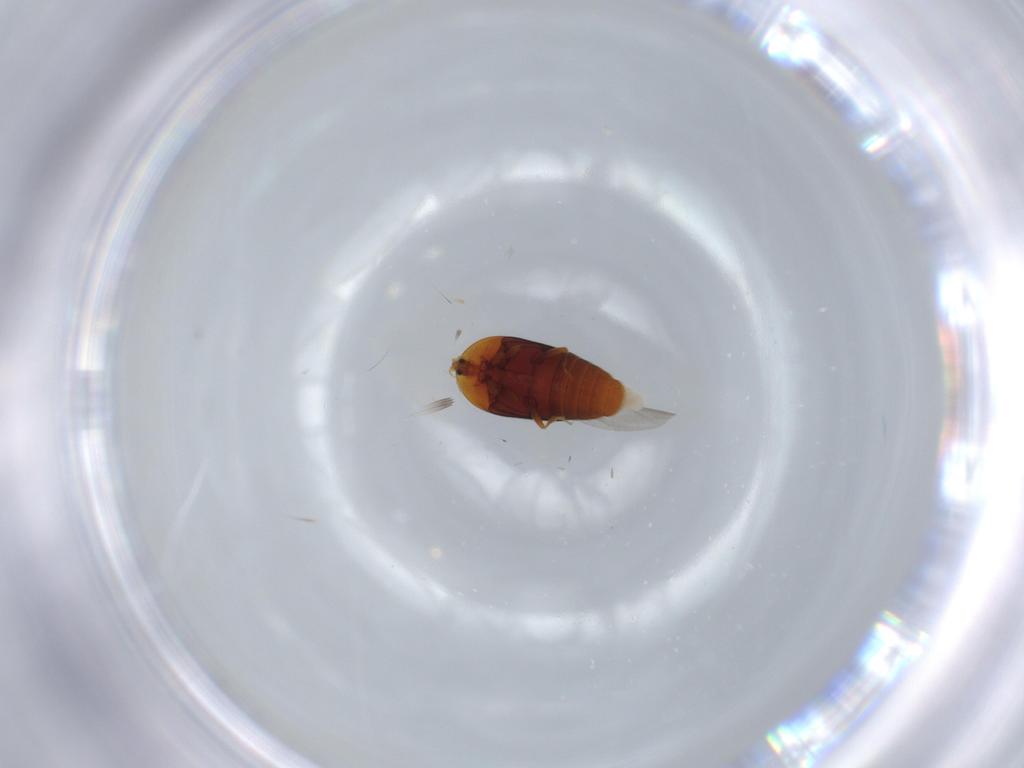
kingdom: Animalia
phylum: Arthropoda
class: Insecta
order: Coleoptera
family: Corylophidae
